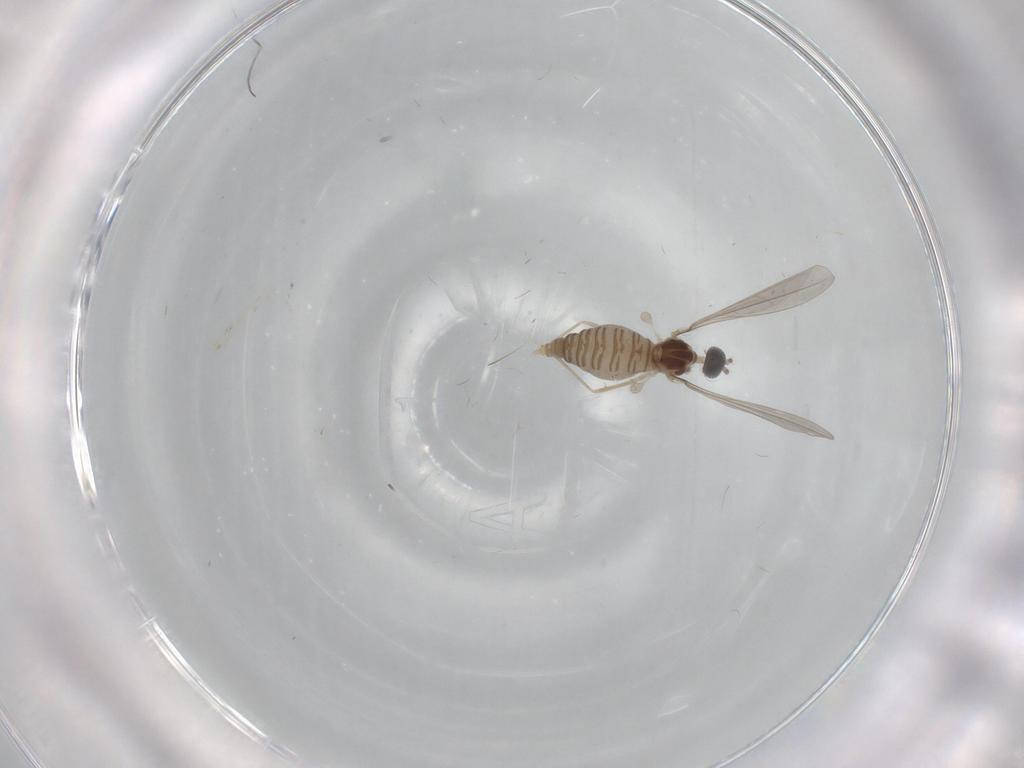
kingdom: Animalia
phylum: Arthropoda
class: Insecta
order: Diptera
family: Cecidomyiidae
